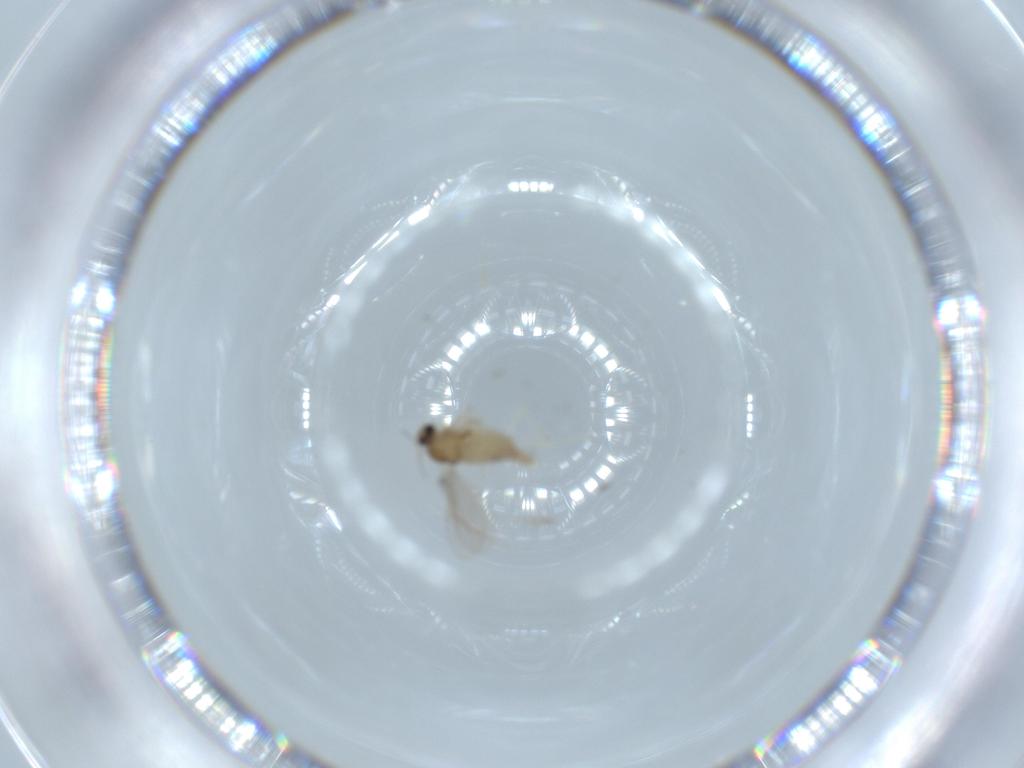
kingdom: Animalia
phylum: Arthropoda
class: Insecta
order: Diptera
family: Cecidomyiidae
